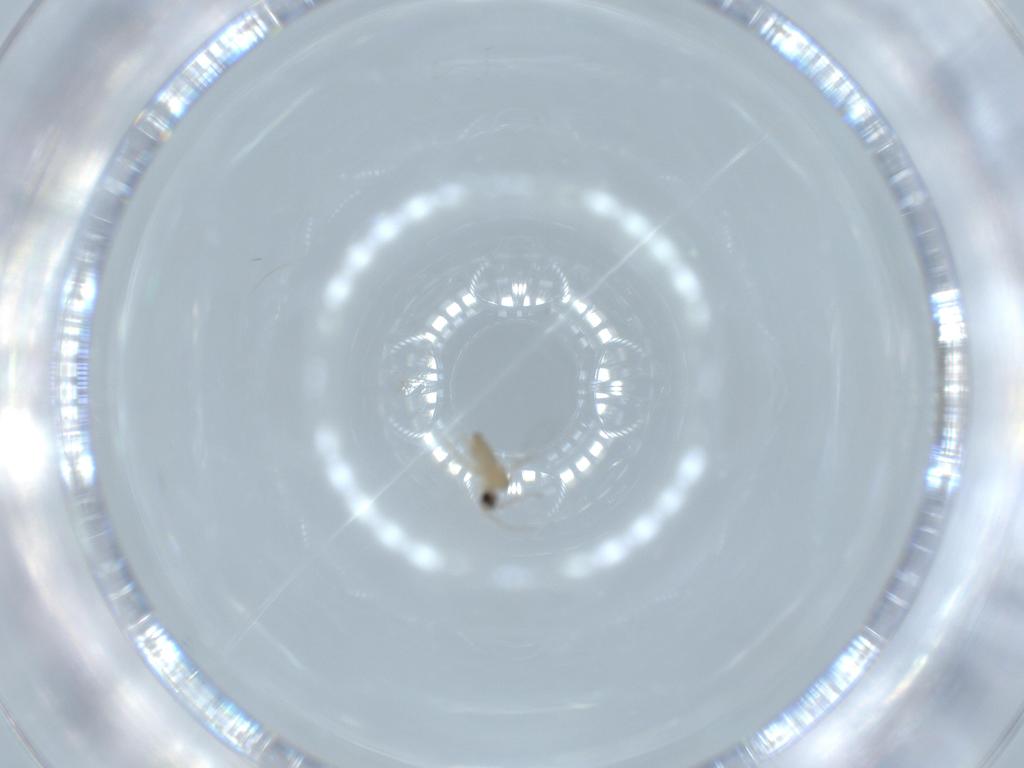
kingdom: Animalia
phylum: Arthropoda
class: Insecta
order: Diptera
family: Cecidomyiidae
